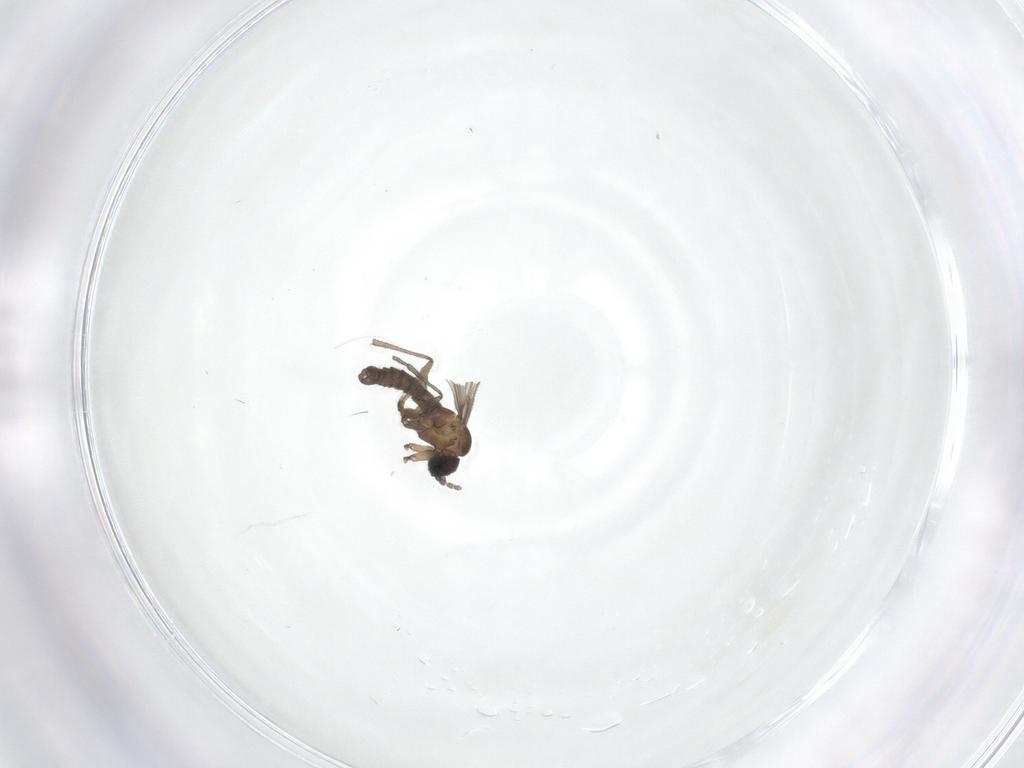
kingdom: Animalia
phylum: Arthropoda
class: Insecta
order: Diptera
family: Sciaridae
